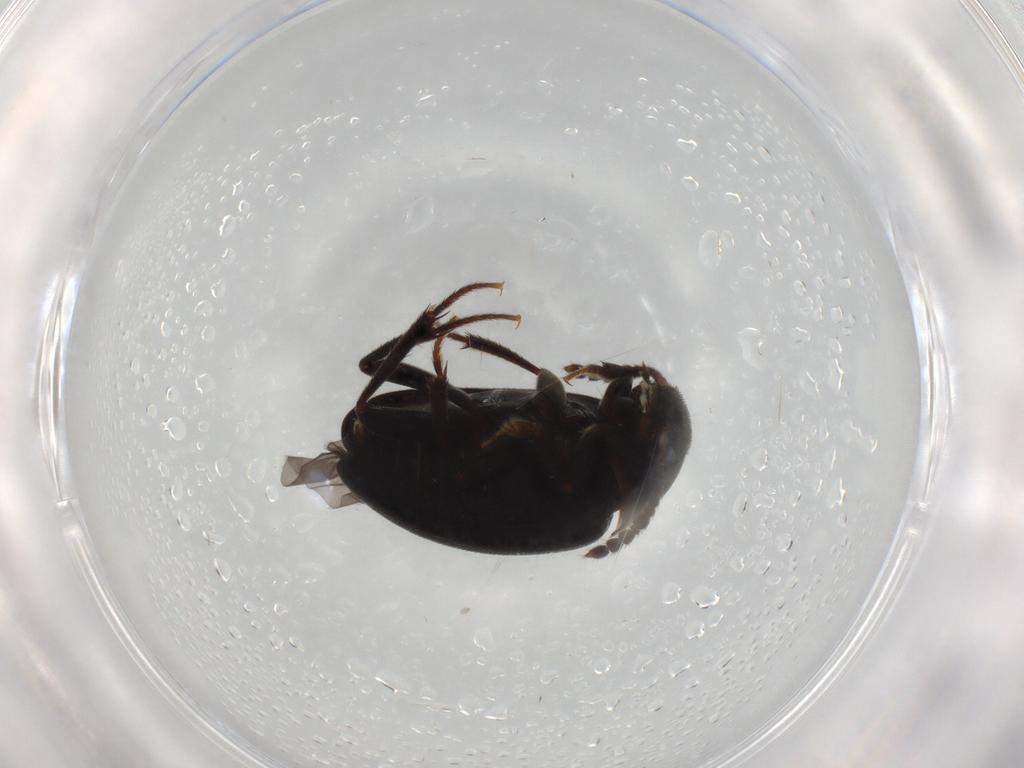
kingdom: Animalia
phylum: Arthropoda
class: Insecta
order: Coleoptera
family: Leiodidae
